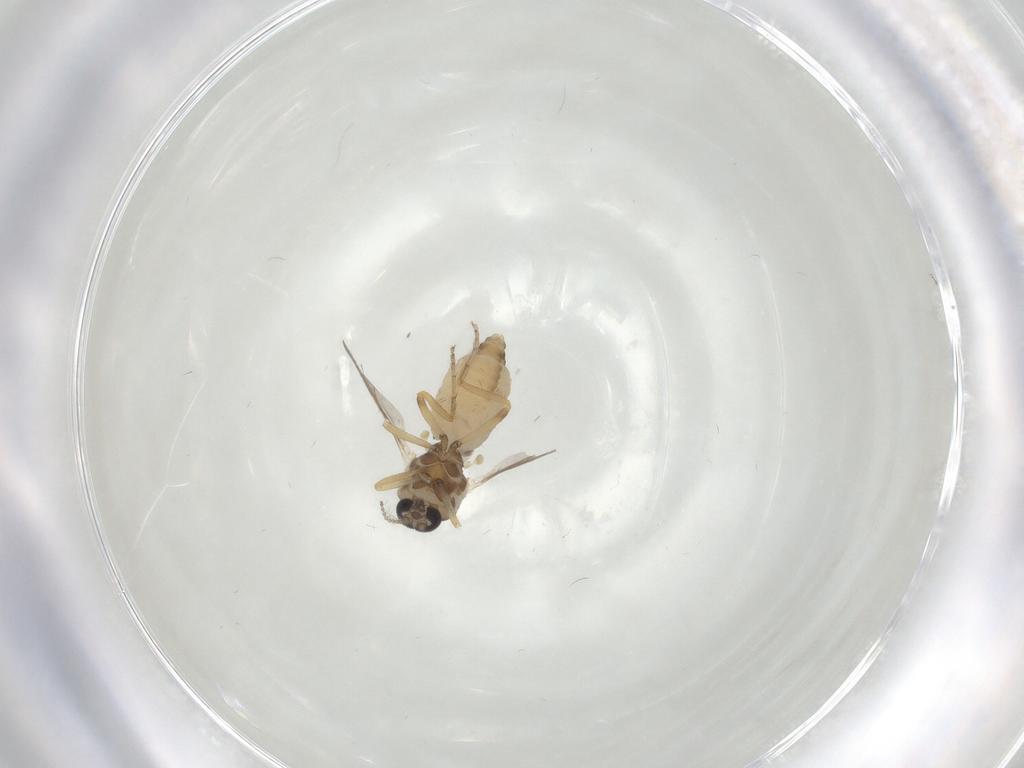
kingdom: Animalia
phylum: Arthropoda
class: Insecta
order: Diptera
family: Ceratopogonidae
